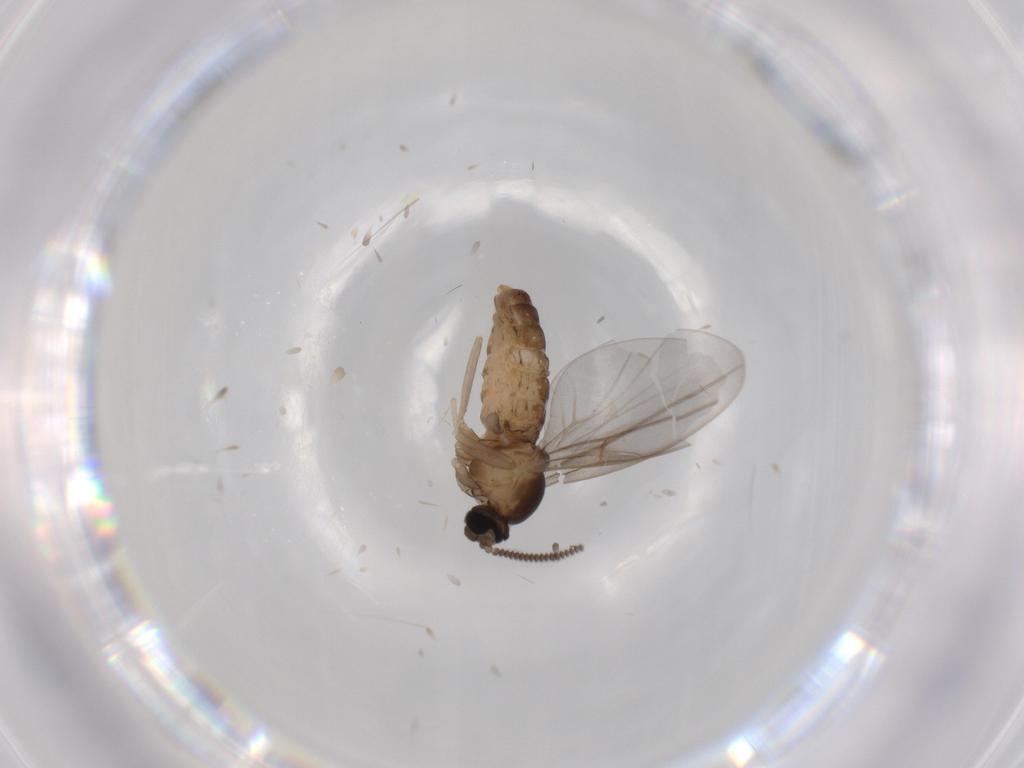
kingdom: Animalia
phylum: Arthropoda
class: Insecta
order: Diptera
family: Cecidomyiidae
